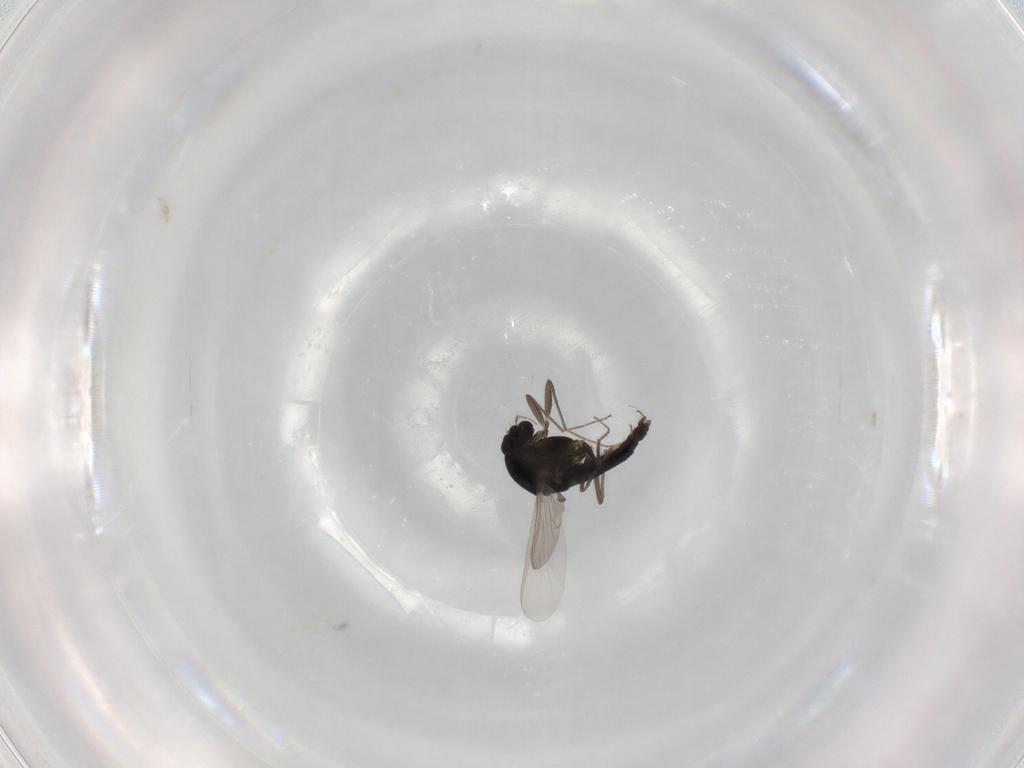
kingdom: Animalia
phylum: Arthropoda
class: Insecta
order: Diptera
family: Chironomidae
